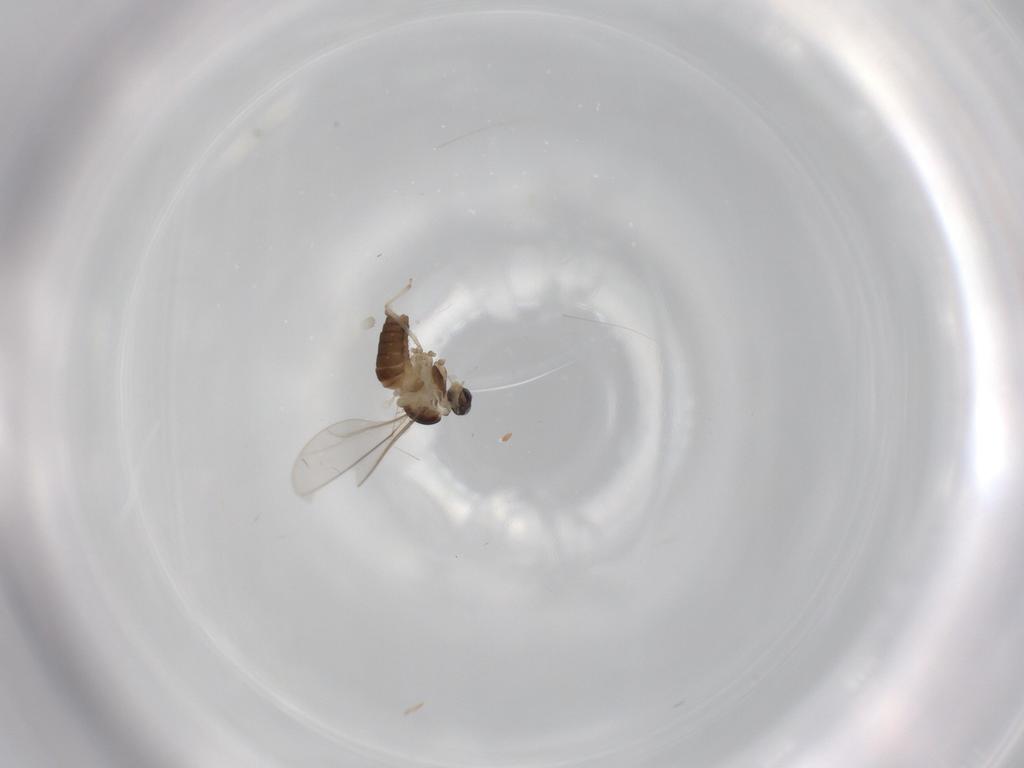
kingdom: Animalia
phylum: Arthropoda
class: Insecta
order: Diptera
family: Cecidomyiidae
